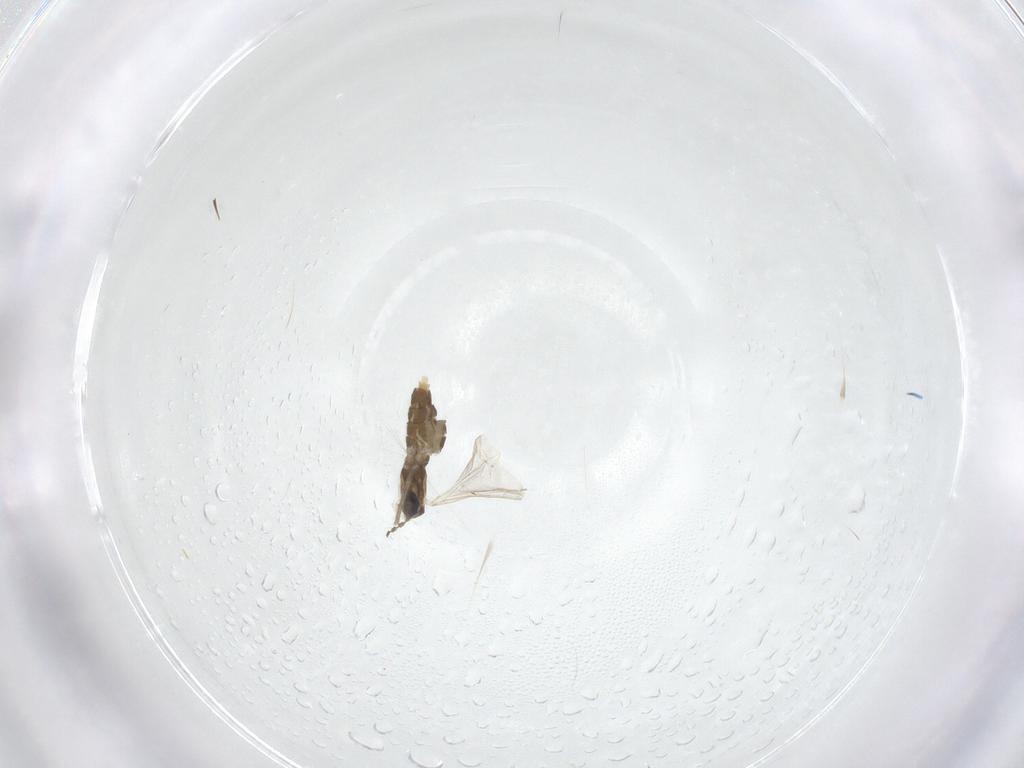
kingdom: Animalia
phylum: Arthropoda
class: Insecta
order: Diptera
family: Cecidomyiidae
